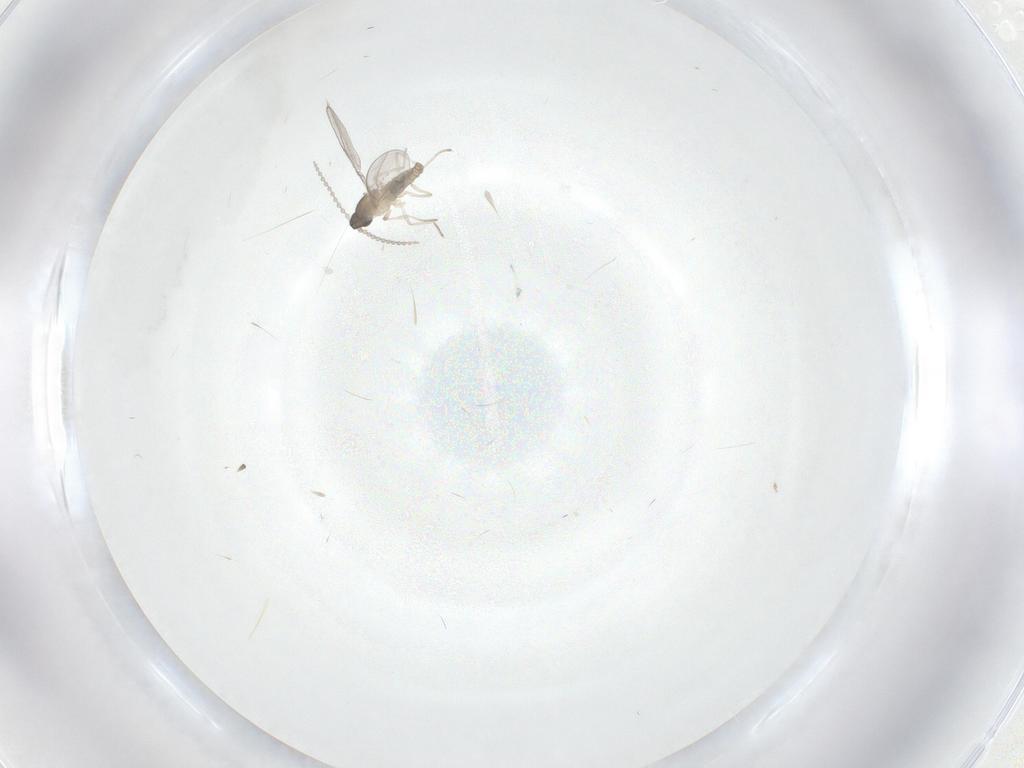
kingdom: Animalia
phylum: Arthropoda
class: Insecta
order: Diptera
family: Cecidomyiidae
